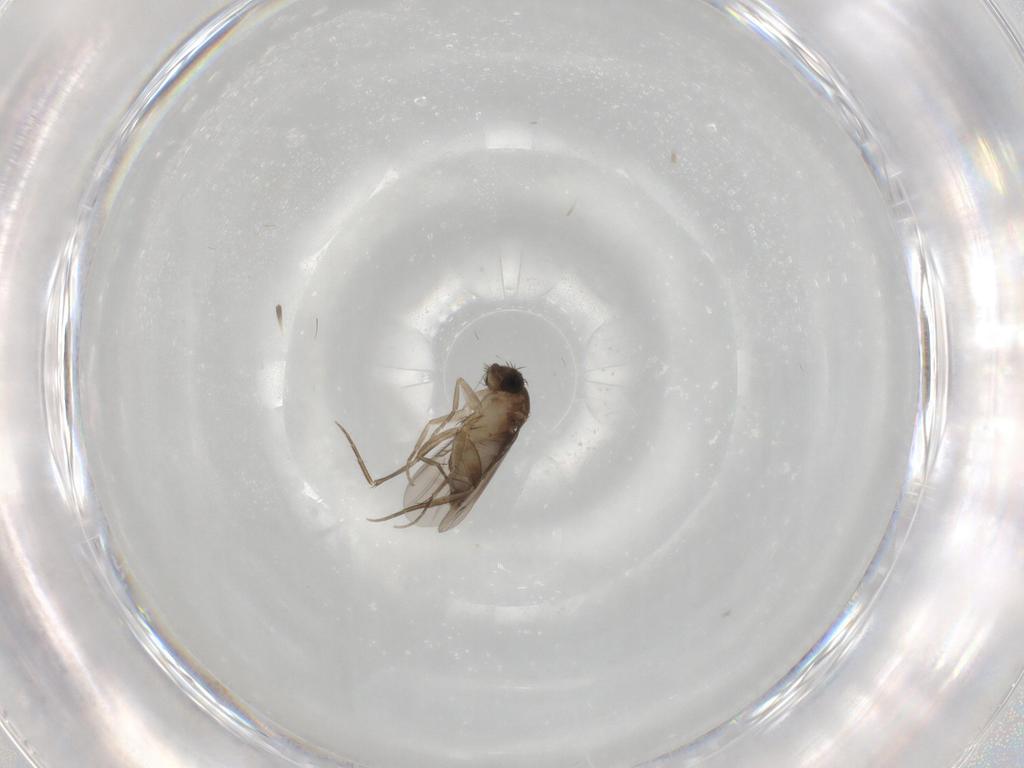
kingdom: Animalia
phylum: Arthropoda
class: Insecta
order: Diptera
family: Phoridae
